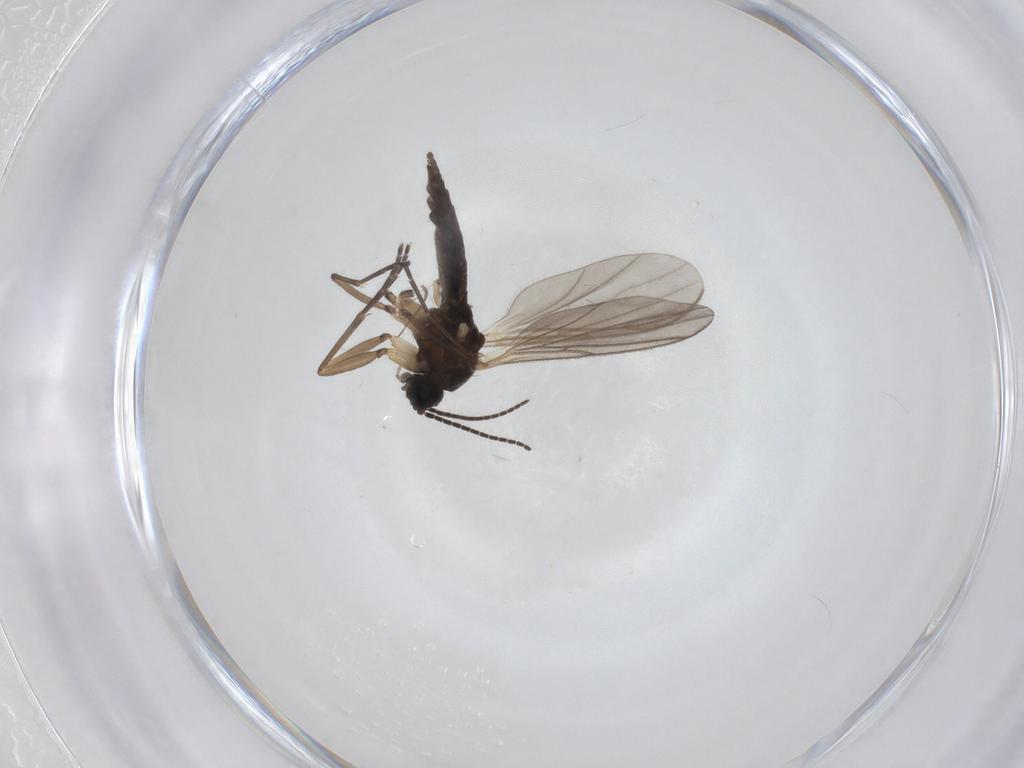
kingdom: Animalia
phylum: Arthropoda
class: Insecta
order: Diptera
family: Sciaridae
